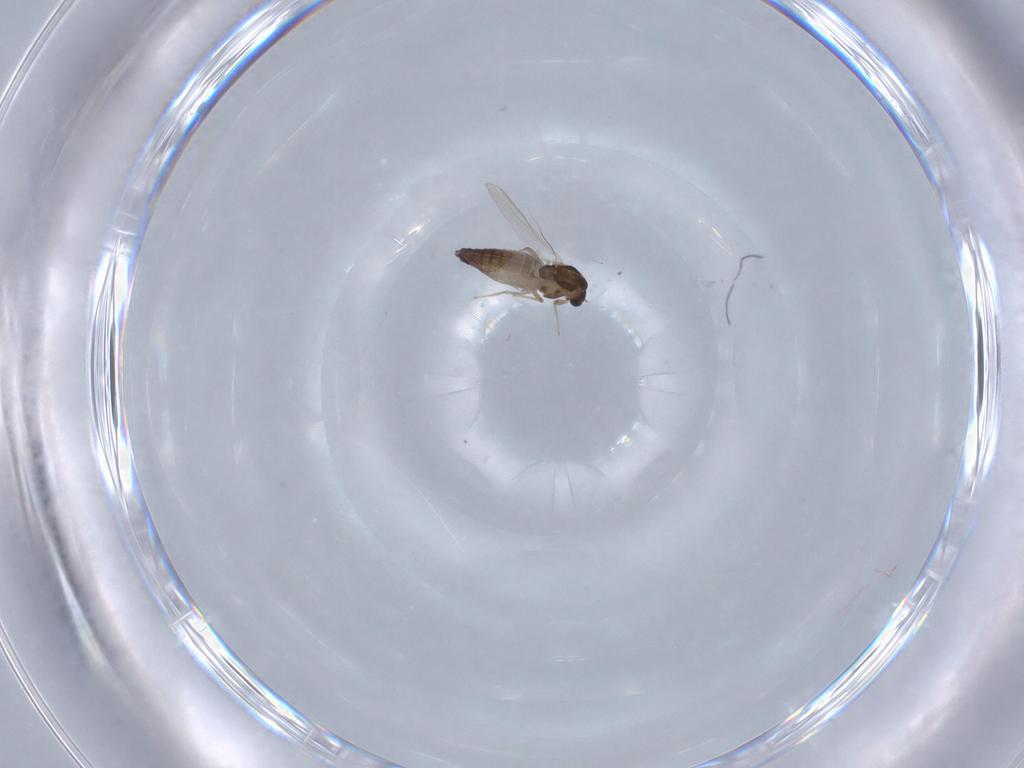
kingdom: Animalia
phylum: Arthropoda
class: Insecta
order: Diptera
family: Chironomidae
